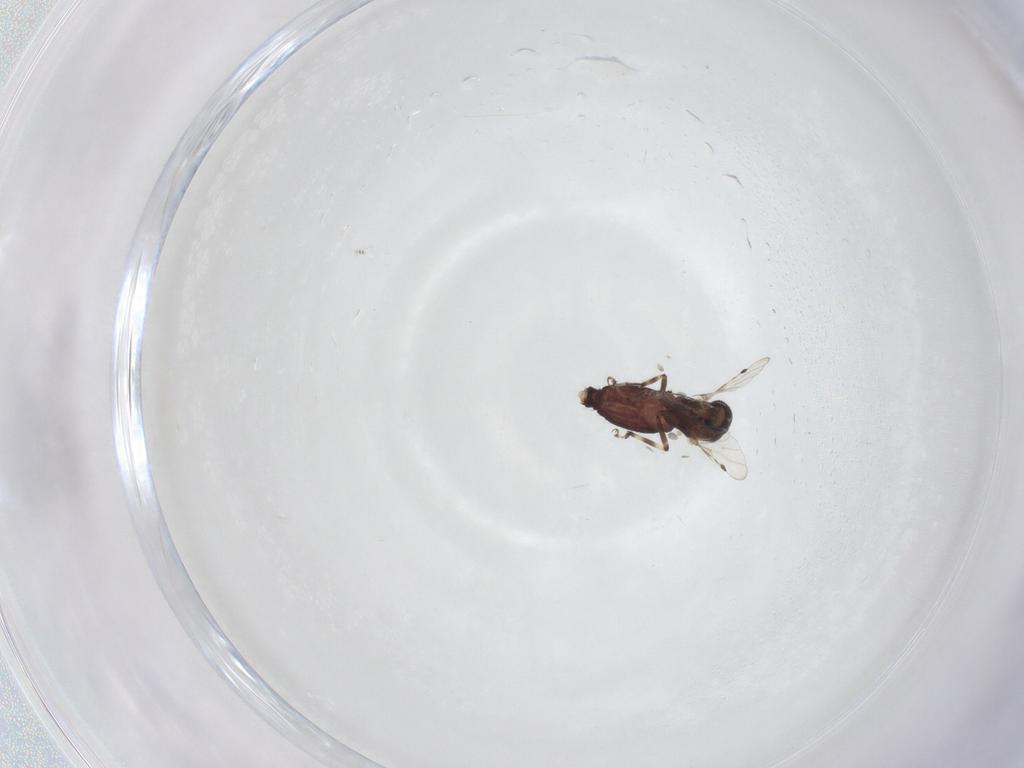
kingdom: Animalia
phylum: Arthropoda
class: Insecta
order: Diptera
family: Ceratopogonidae
